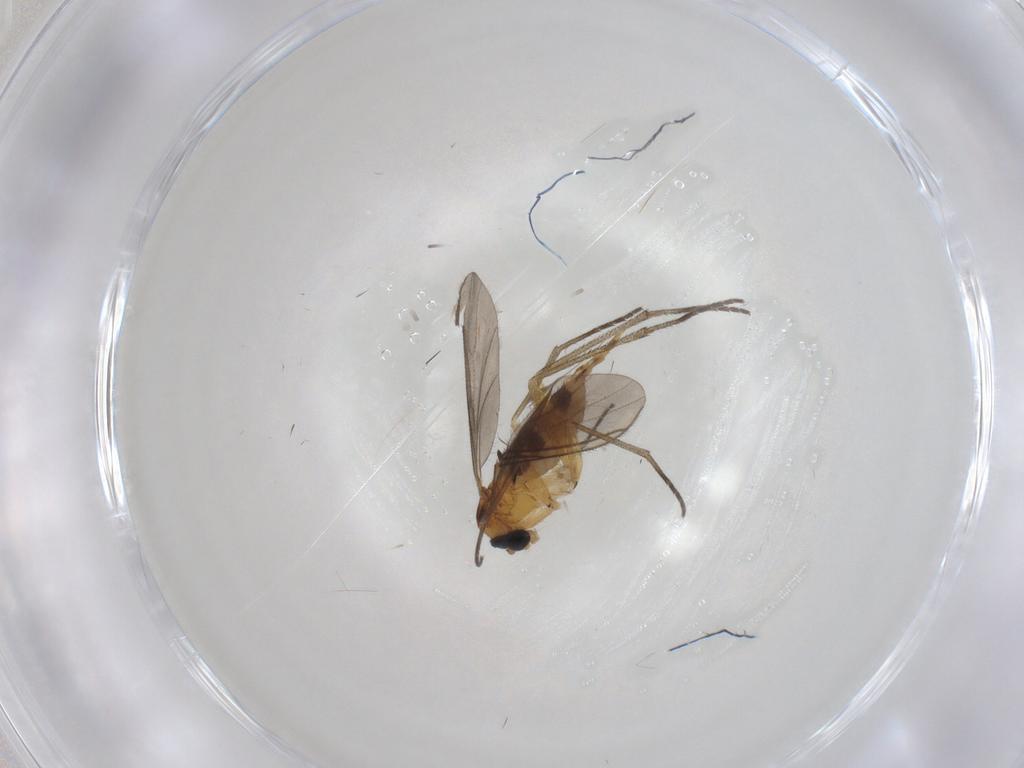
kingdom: Animalia
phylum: Arthropoda
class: Insecta
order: Diptera
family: Sciaridae
